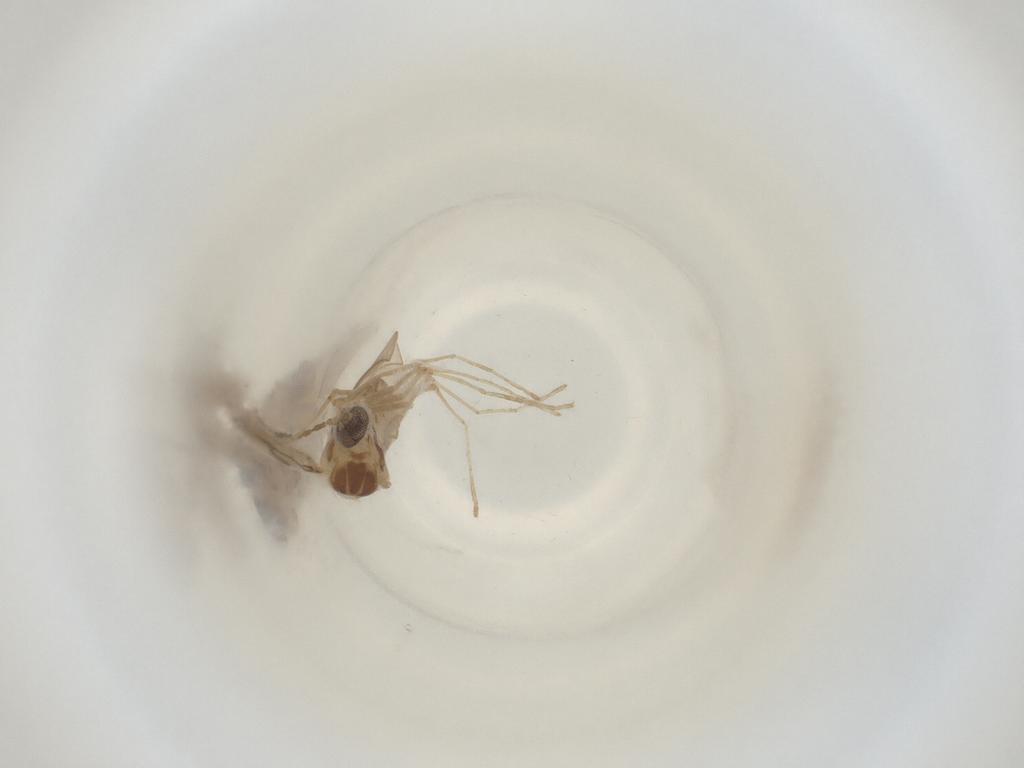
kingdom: Animalia
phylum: Arthropoda
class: Insecta
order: Diptera
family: Cecidomyiidae
